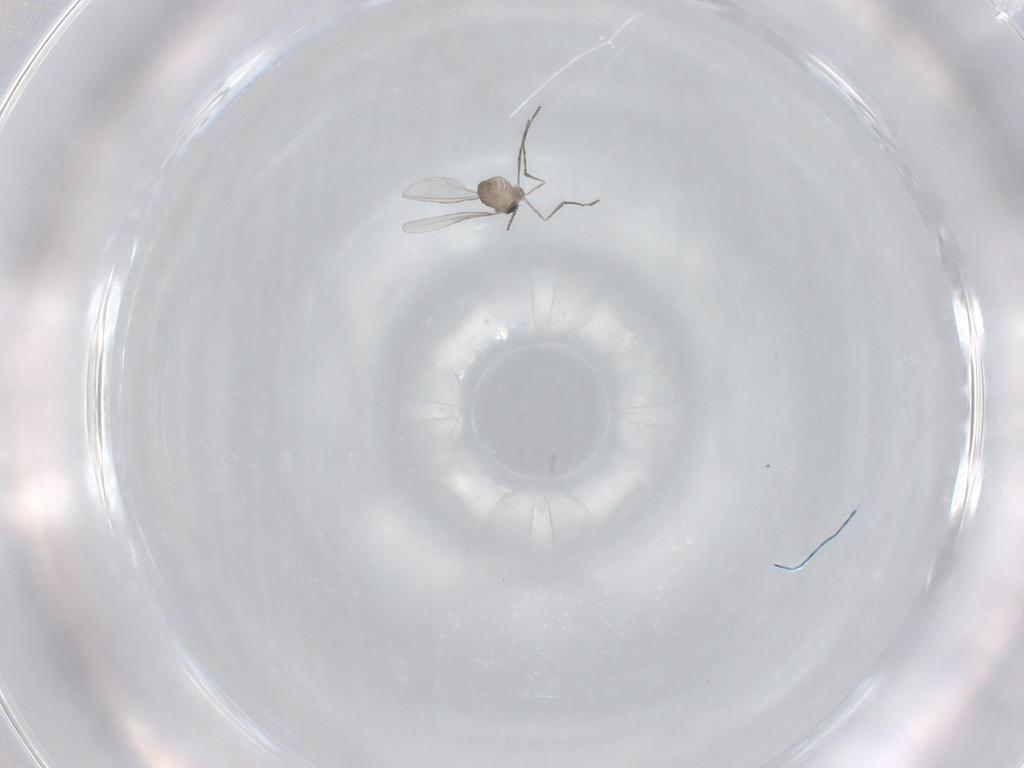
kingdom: Animalia
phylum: Arthropoda
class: Insecta
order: Diptera
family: Cecidomyiidae
